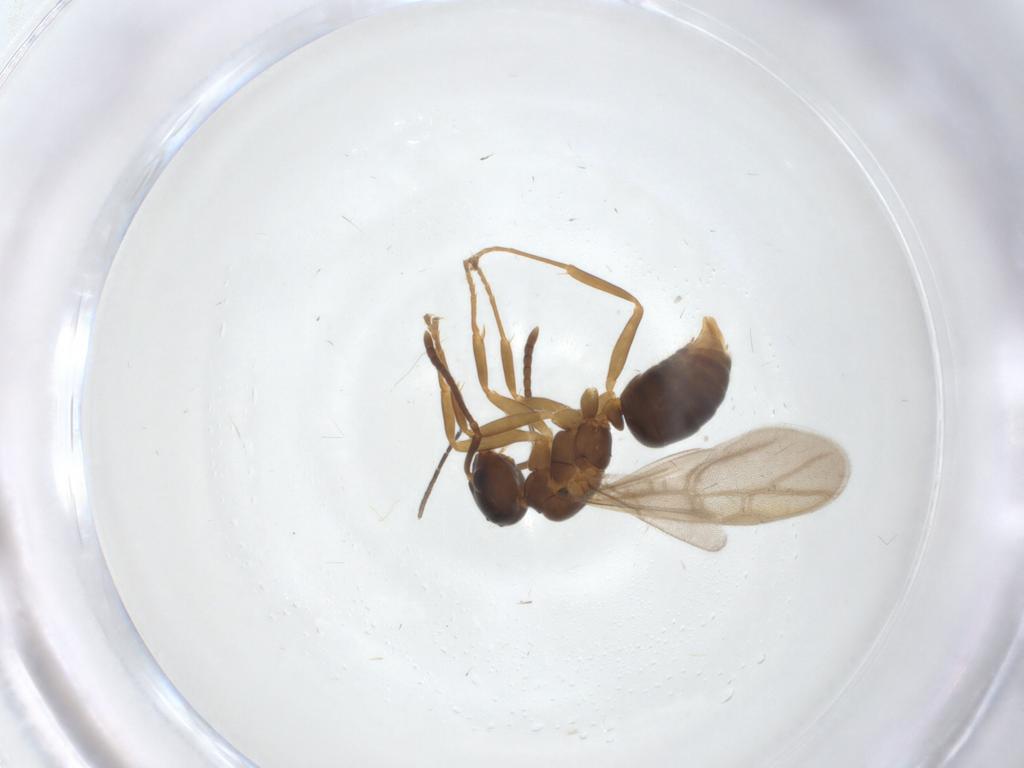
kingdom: Animalia
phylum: Arthropoda
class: Insecta
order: Hymenoptera
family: Formicidae
